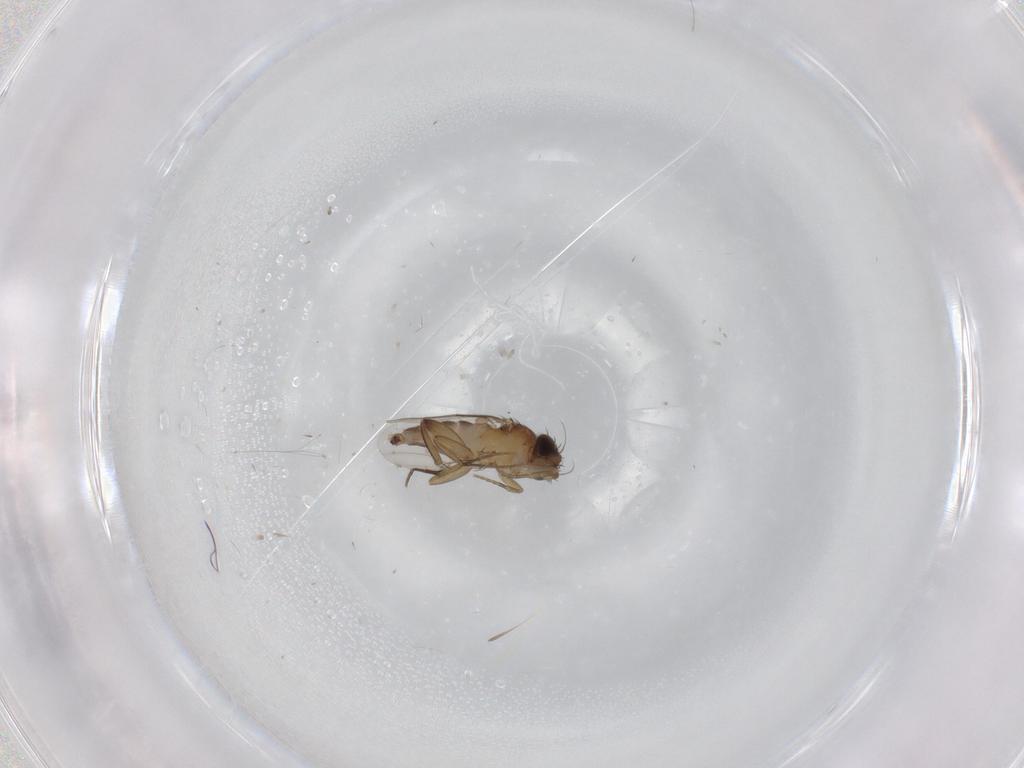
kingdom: Animalia
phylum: Arthropoda
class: Insecta
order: Diptera
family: Phoridae
